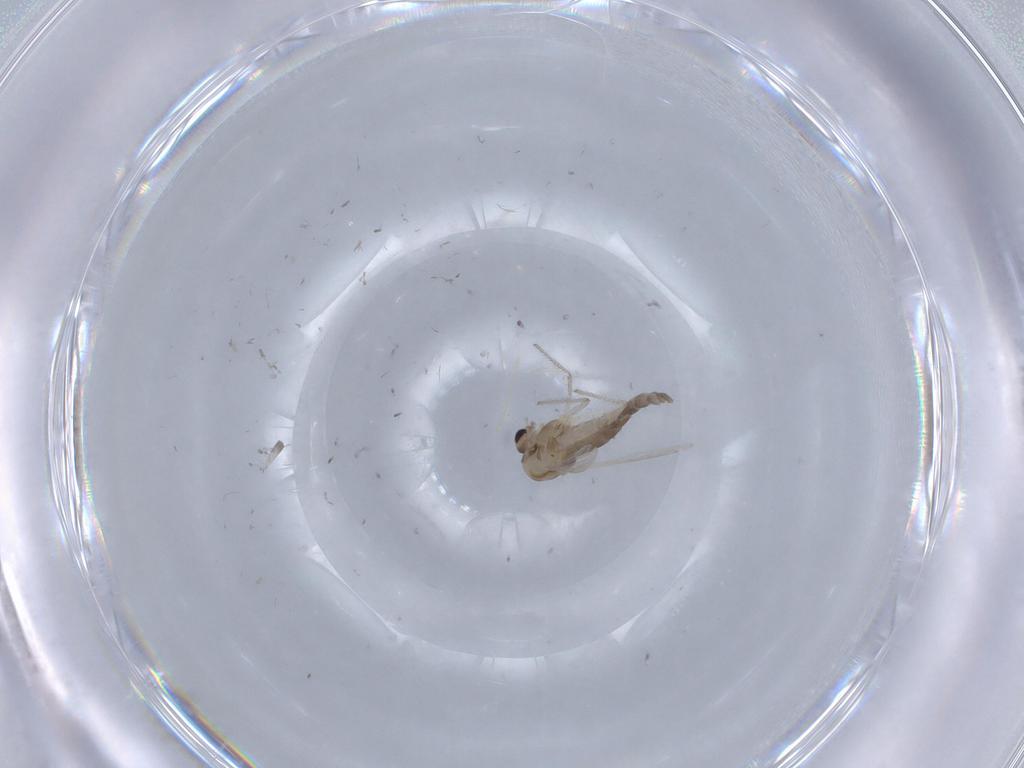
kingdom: Animalia
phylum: Arthropoda
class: Insecta
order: Diptera
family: Chironomidae
